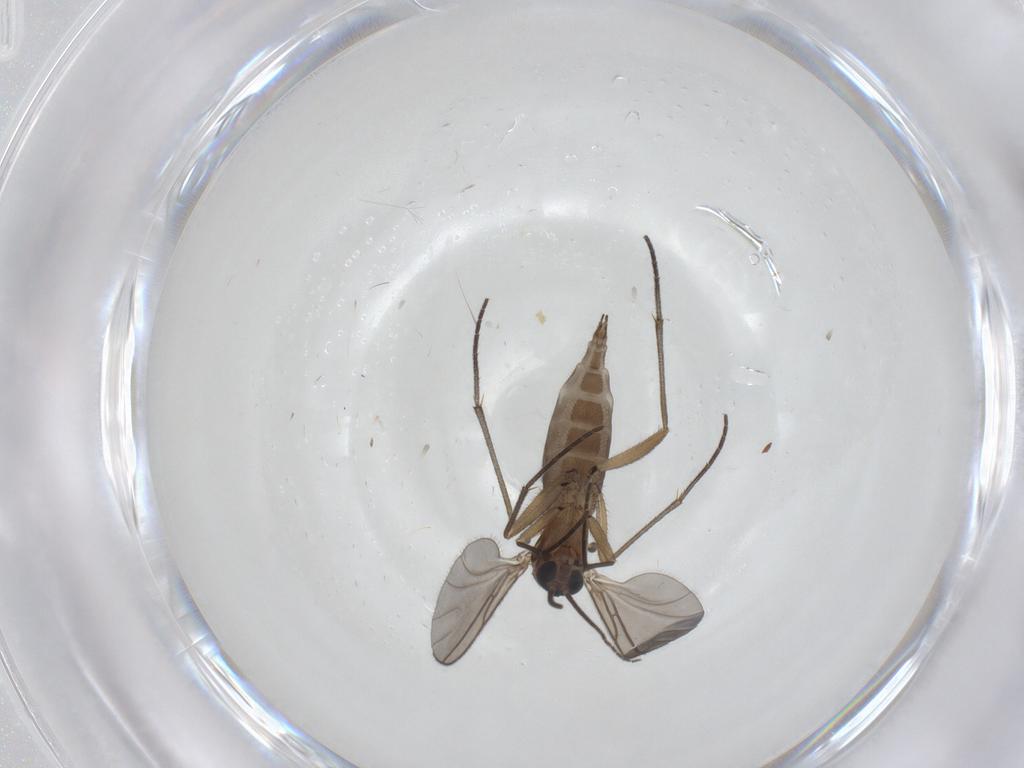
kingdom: Animalia
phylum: Arthropoda
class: Insecta
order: Diptera
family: Sciaridae
